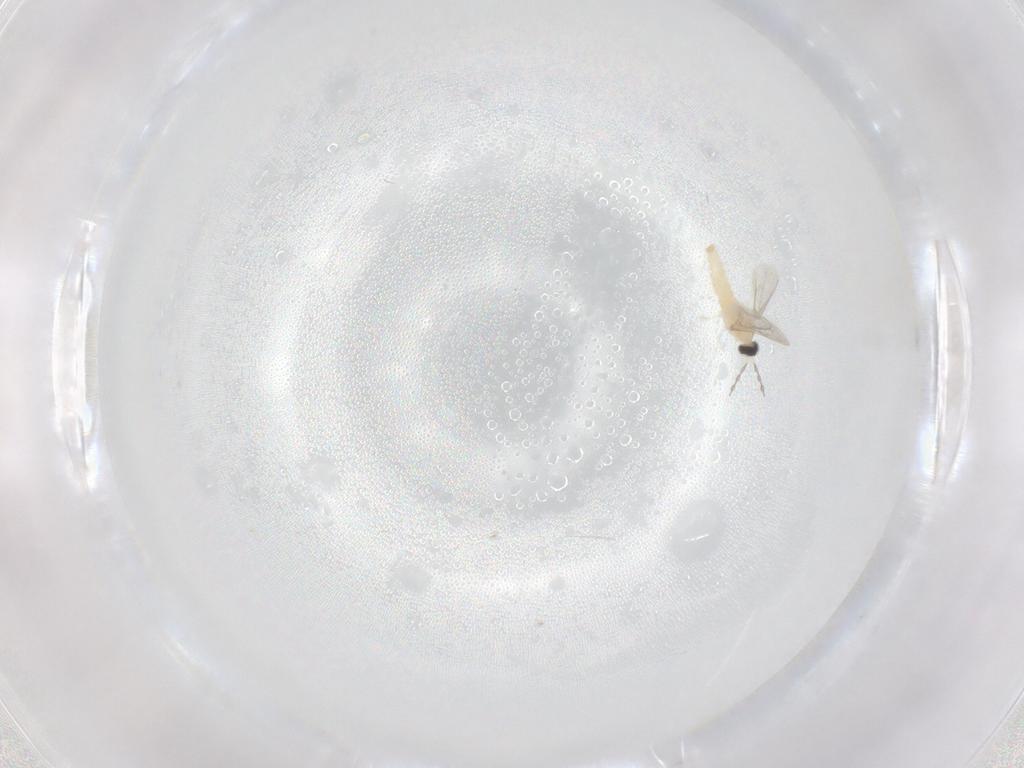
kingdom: Animalia
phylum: Arthropoda
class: Insecta
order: Diptera
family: Cecidomyiidae
